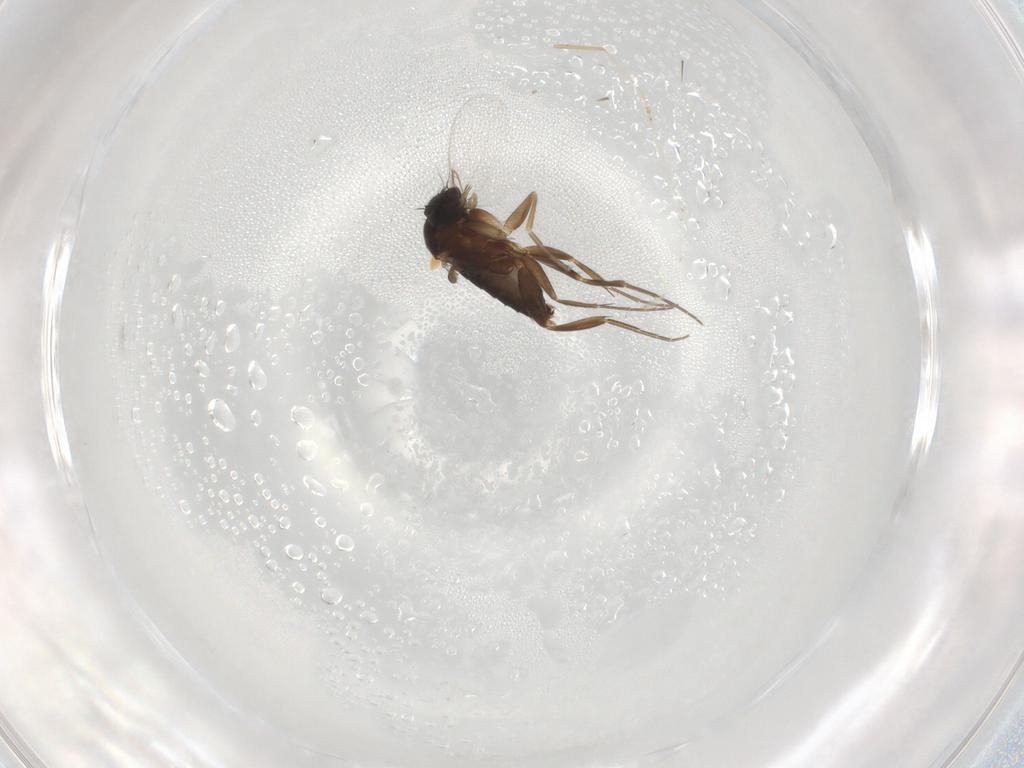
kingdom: Animalia
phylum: Arthropoda
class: Insecta
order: Diptera
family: Phoridae
